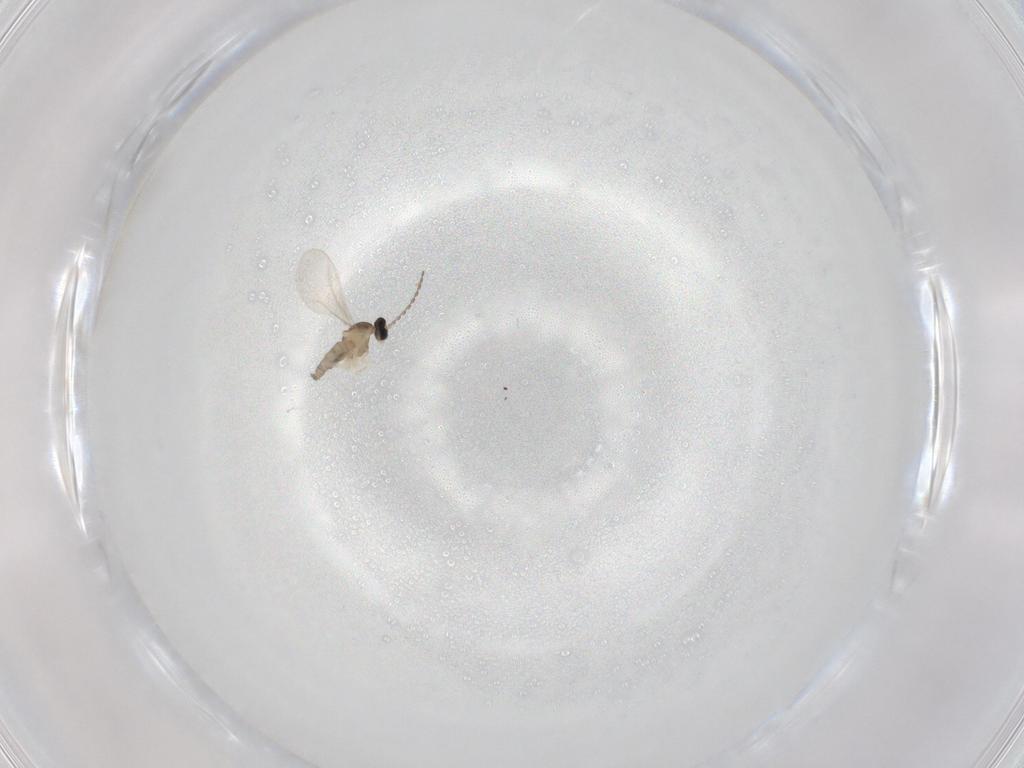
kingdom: Animalia
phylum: Arthropoda
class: Insecta
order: Diptera
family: Cecidomyiidae
